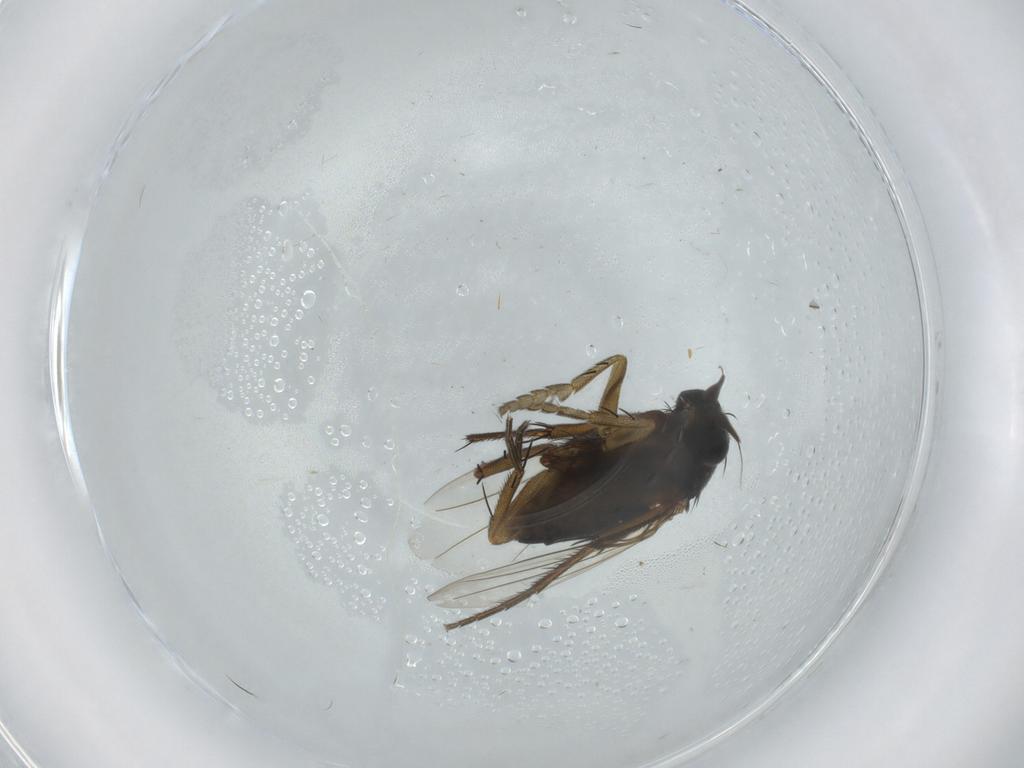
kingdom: Animalia
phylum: Arthropoda
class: Insecta
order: Diptera
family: Cecidomyiidae
